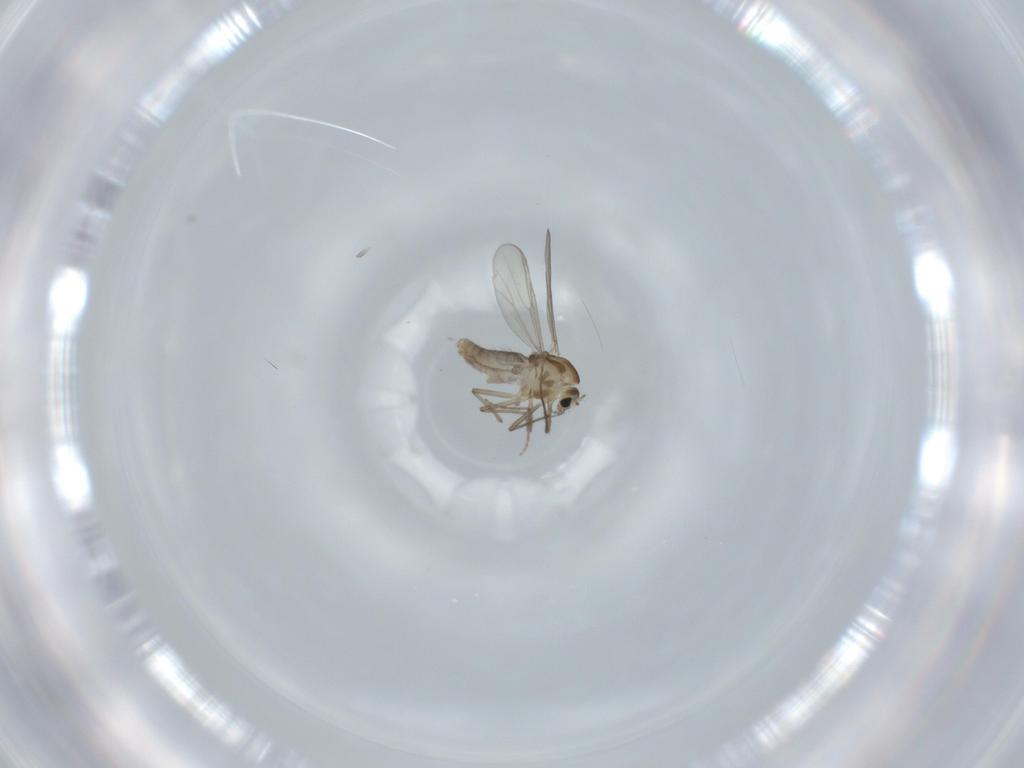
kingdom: Animalia
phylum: Arthropoda
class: Insecta
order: Diptera
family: Chironomidae
